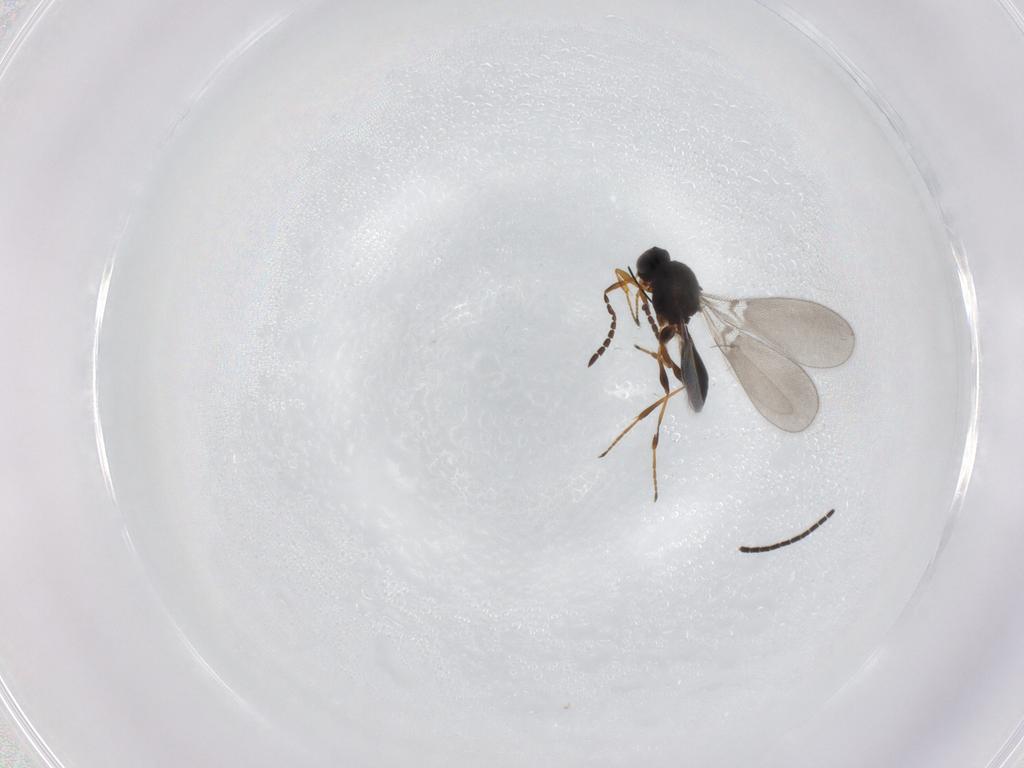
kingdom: Animalia
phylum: Arthropoda
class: Insecta
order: Hymenoptera
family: Platygastridae
